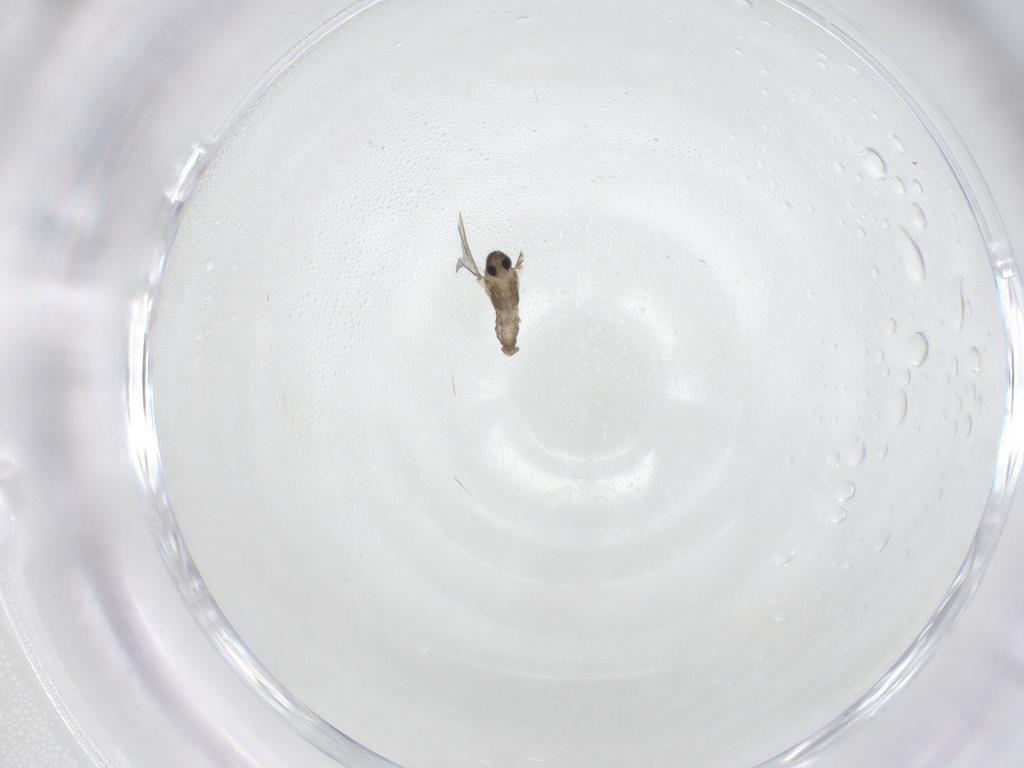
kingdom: Animalia
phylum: Arthropoda
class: Insecta
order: Diptera
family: Cecidomyiidae
